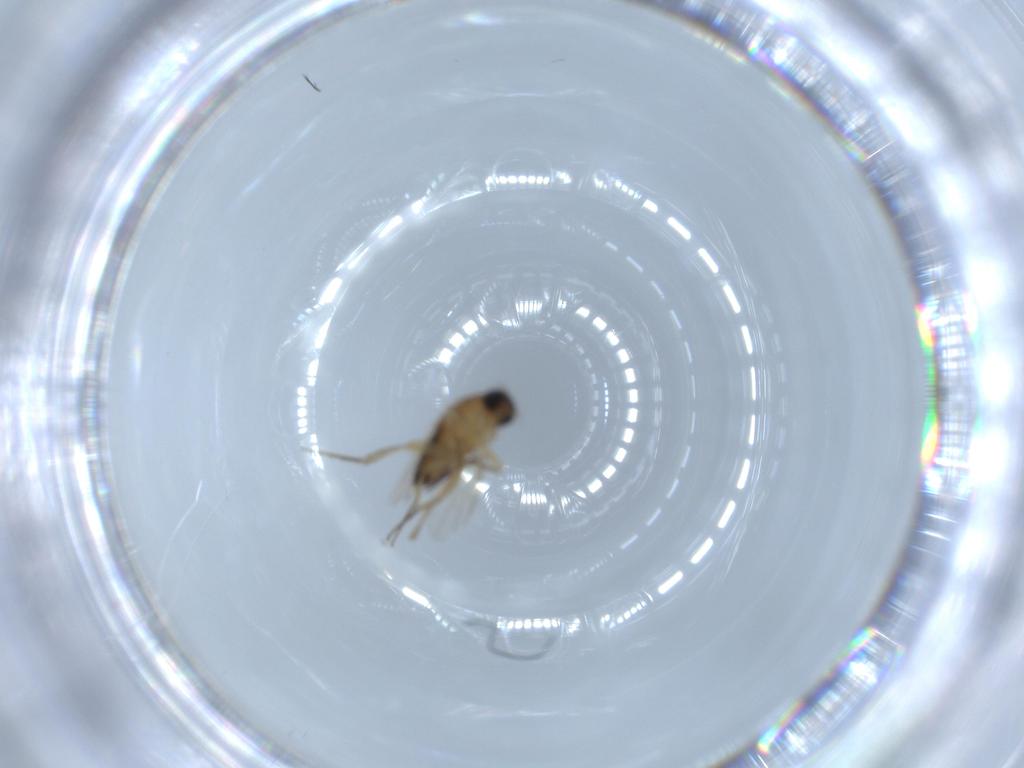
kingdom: Animalia
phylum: Arthropoda
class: Insecta
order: Diptera
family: Phoridae
